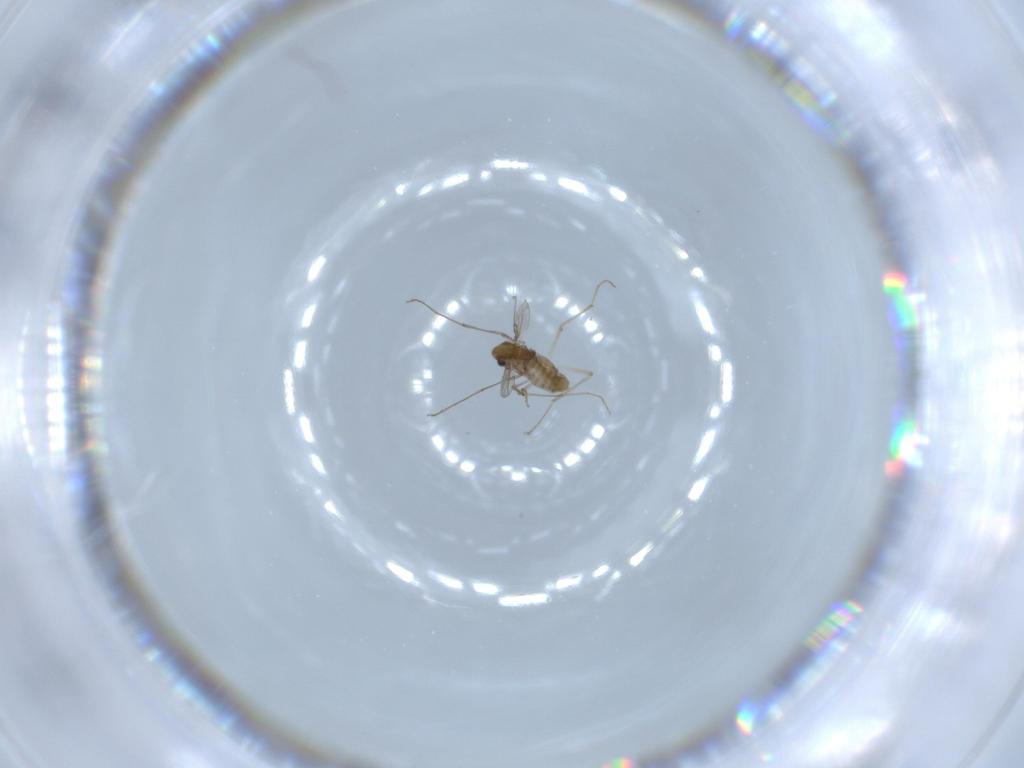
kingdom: Animalia
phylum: Arthropoda
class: Insecta
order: Diptera
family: Chironomidae
